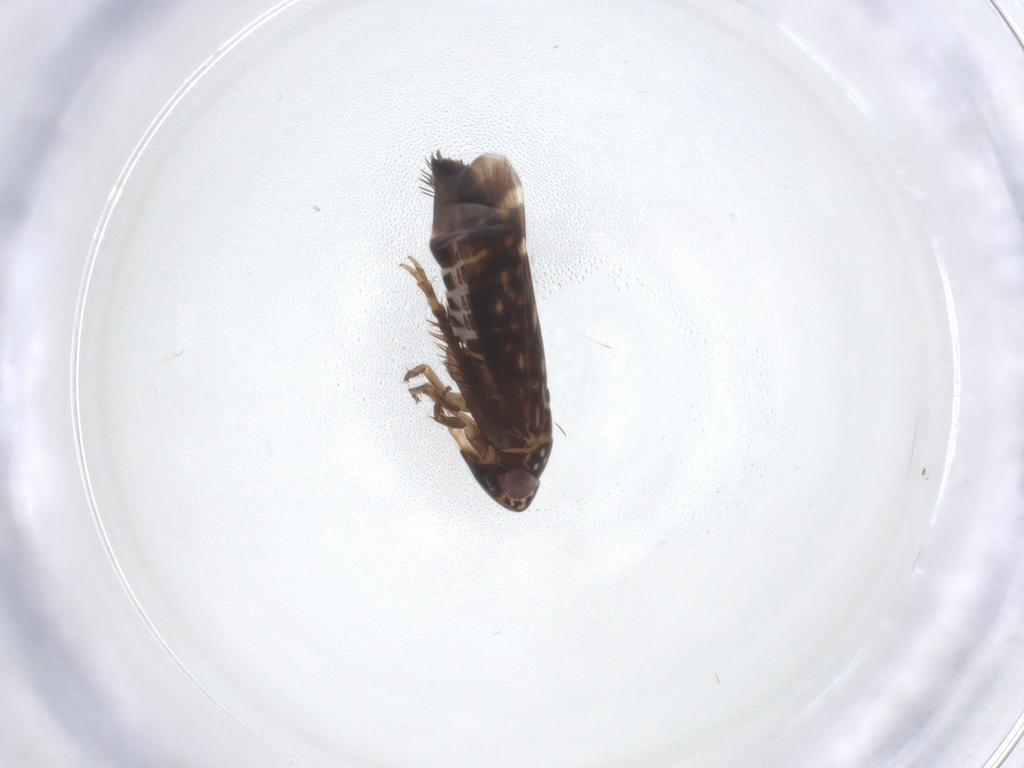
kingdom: Animalia
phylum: Arthropoda
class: Insecta
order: Hemiptera
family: Cicadellidae
